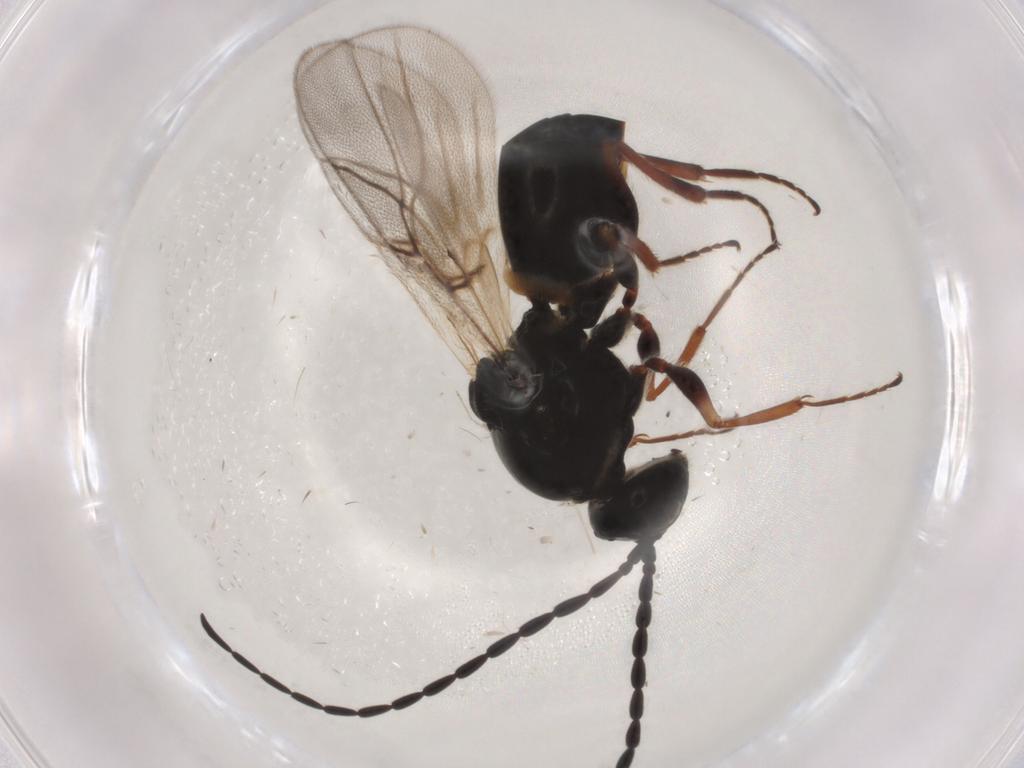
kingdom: Animalia
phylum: Arthropoda
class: Insecta
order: Hymenoptera
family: Figitidae
